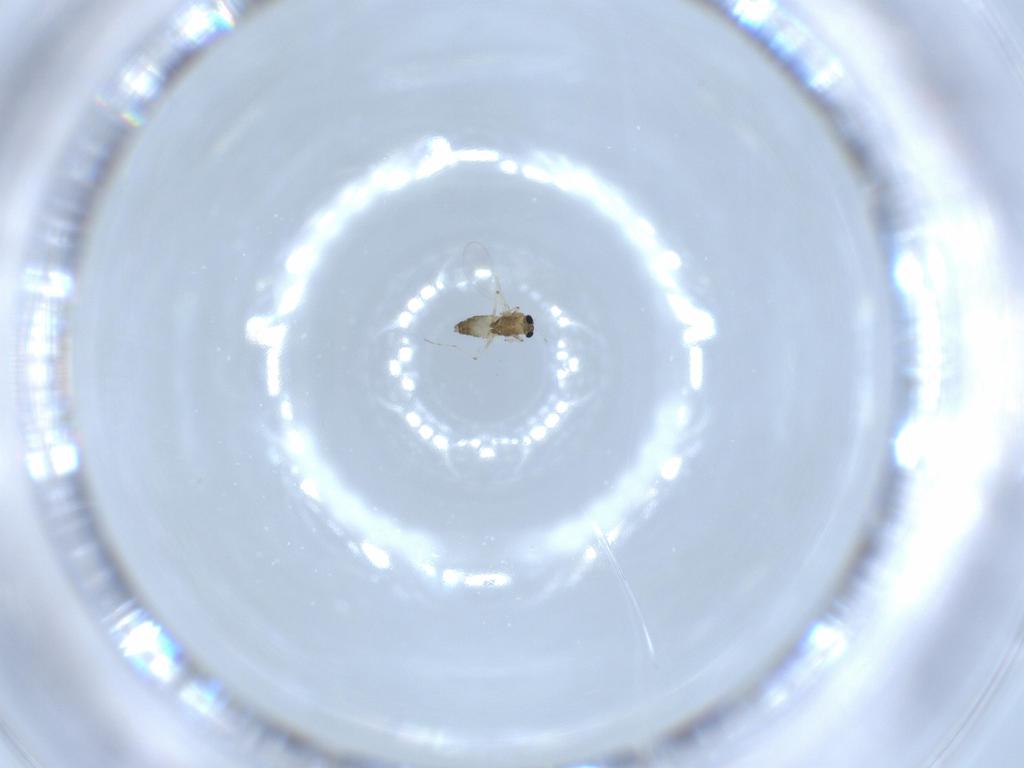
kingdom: Animalia
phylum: Arthropoda
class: Insecta
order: Diptera
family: Chironomidae
